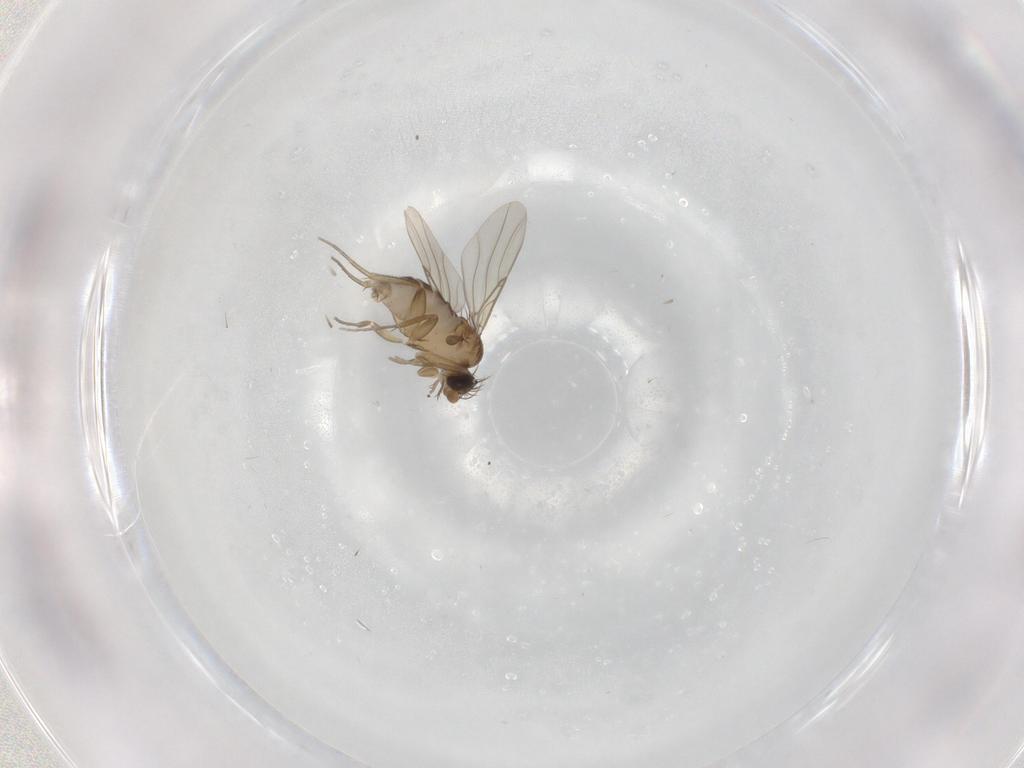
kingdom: Animalia
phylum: Arthropoda
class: Insecta
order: Diptera
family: Phoridae
